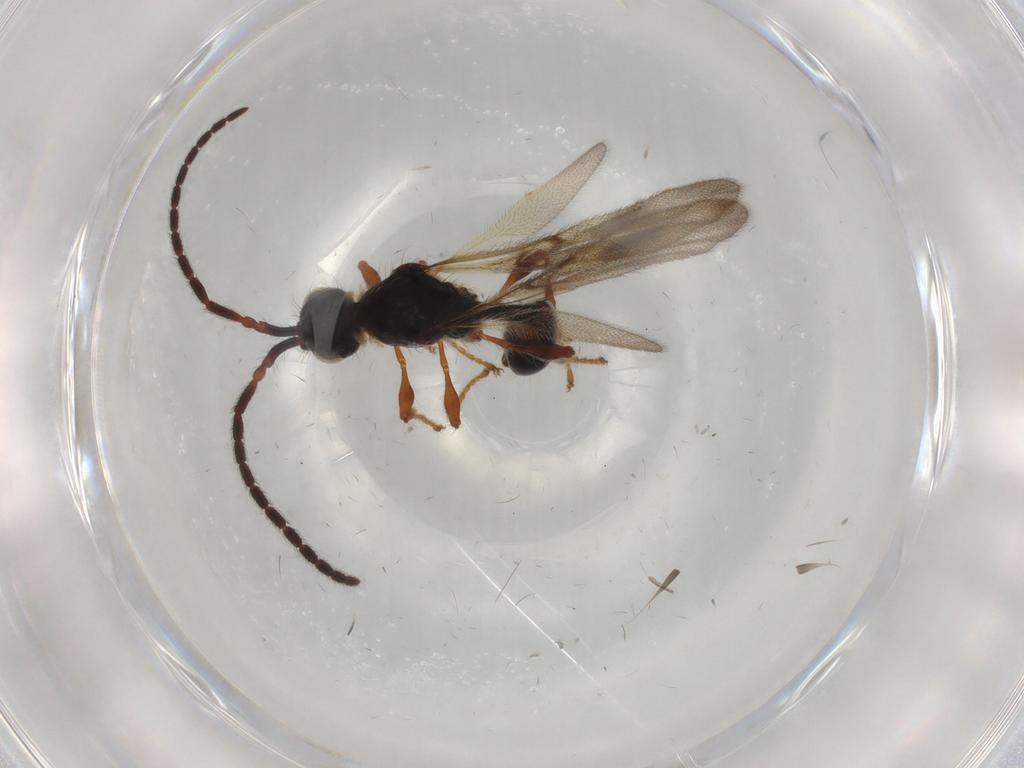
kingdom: Animalia
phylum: Arthropoda
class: Insecta
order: Hymenoptera
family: Diapriidae
